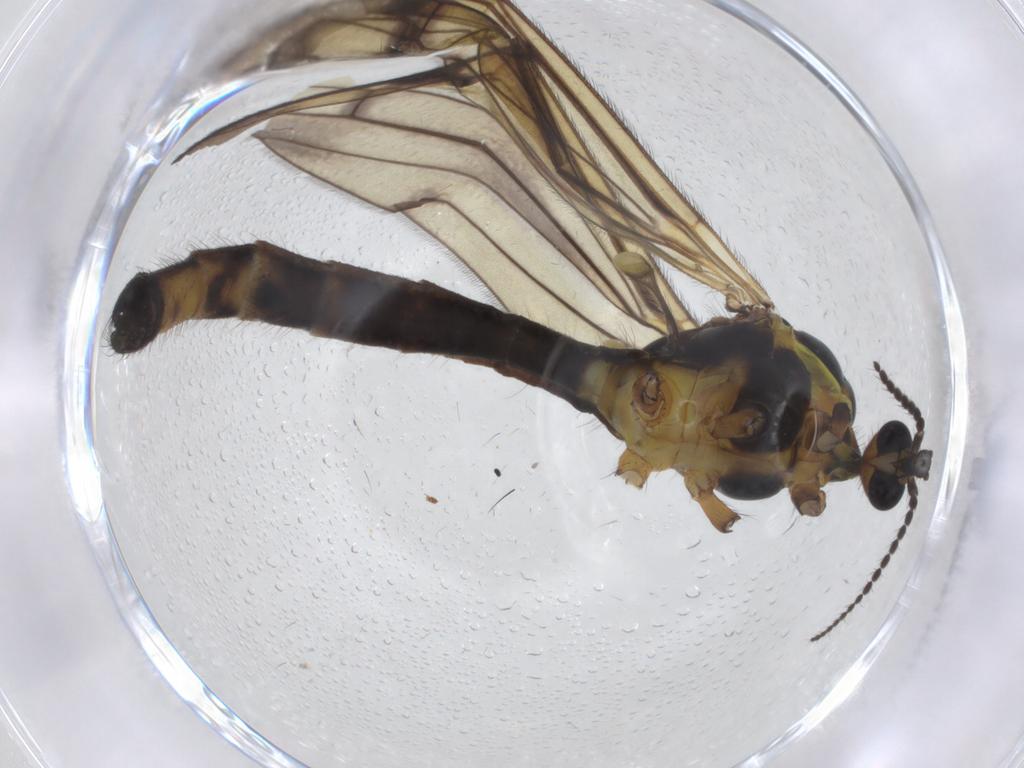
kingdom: Animalia
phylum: Arthropoda
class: Insecta
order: Diptera
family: Limoniidae
